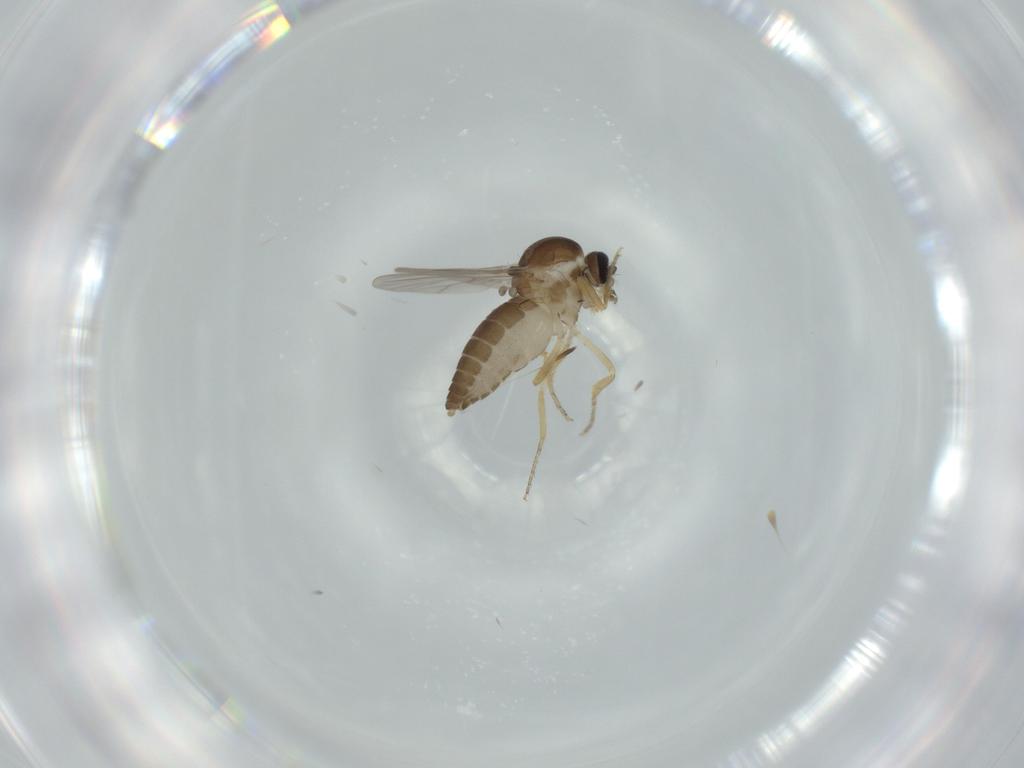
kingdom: Animalia
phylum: Arthropoda
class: Insecta
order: Diptera
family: Ceratopogonidae
